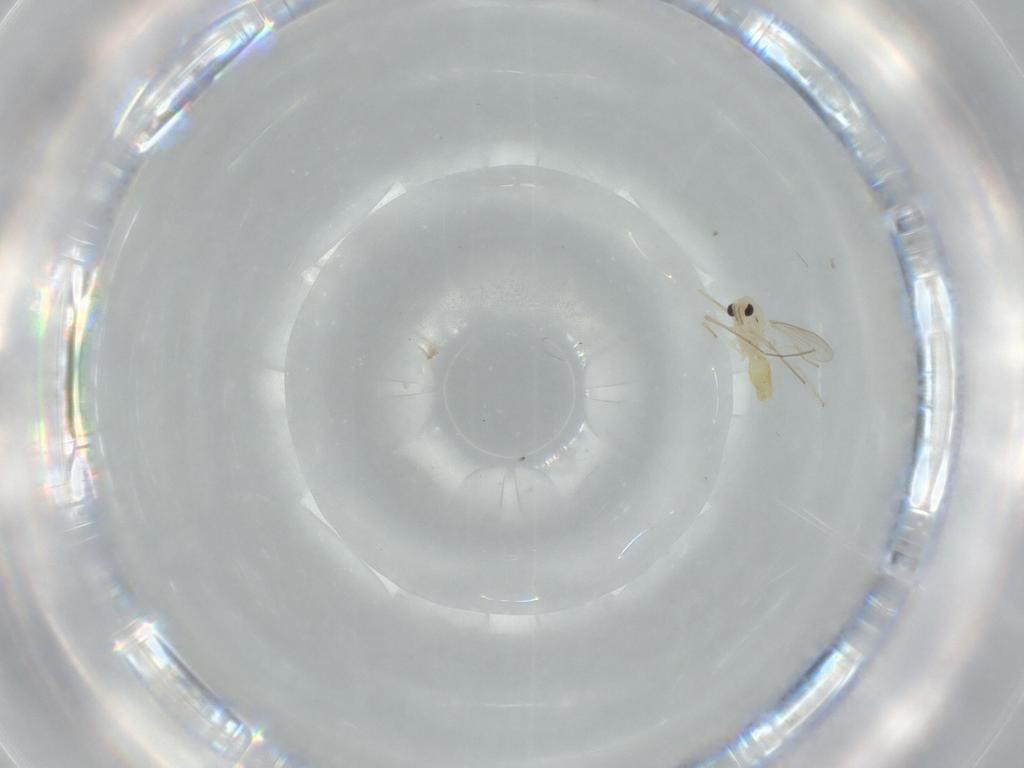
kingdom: Animalia
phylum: Arthropoda
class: Insecta
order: Diptera
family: Chironomidae
